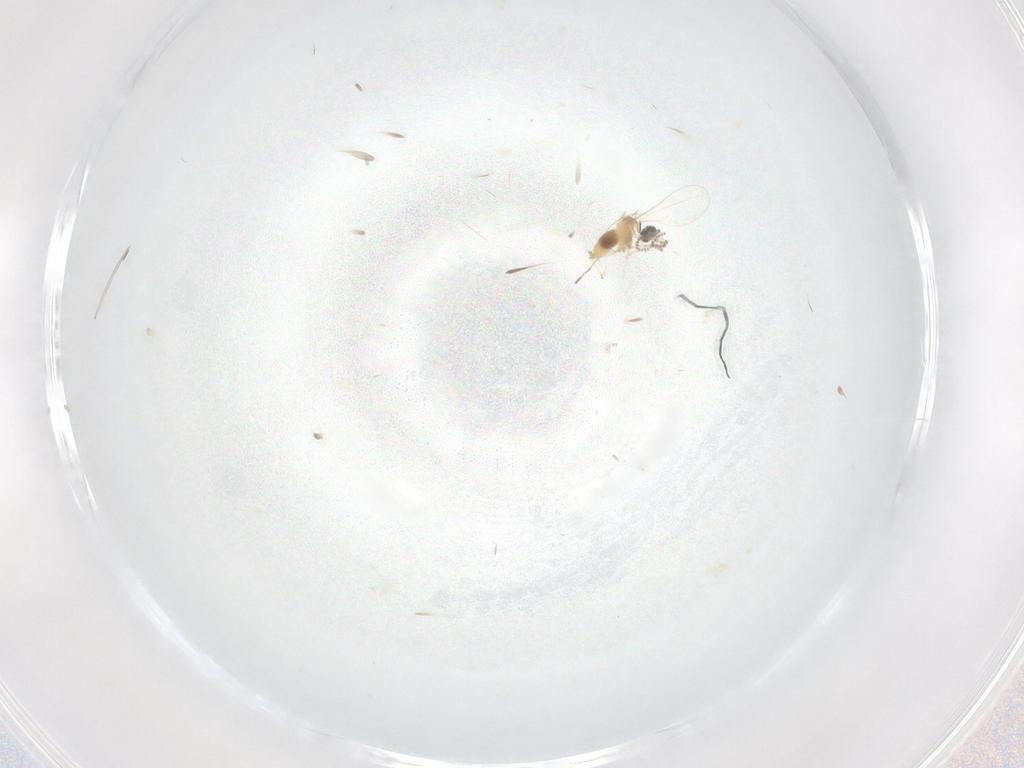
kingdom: Animalia
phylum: Arthropoda
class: Insecta
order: Diptera
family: Cecidomyiidae
